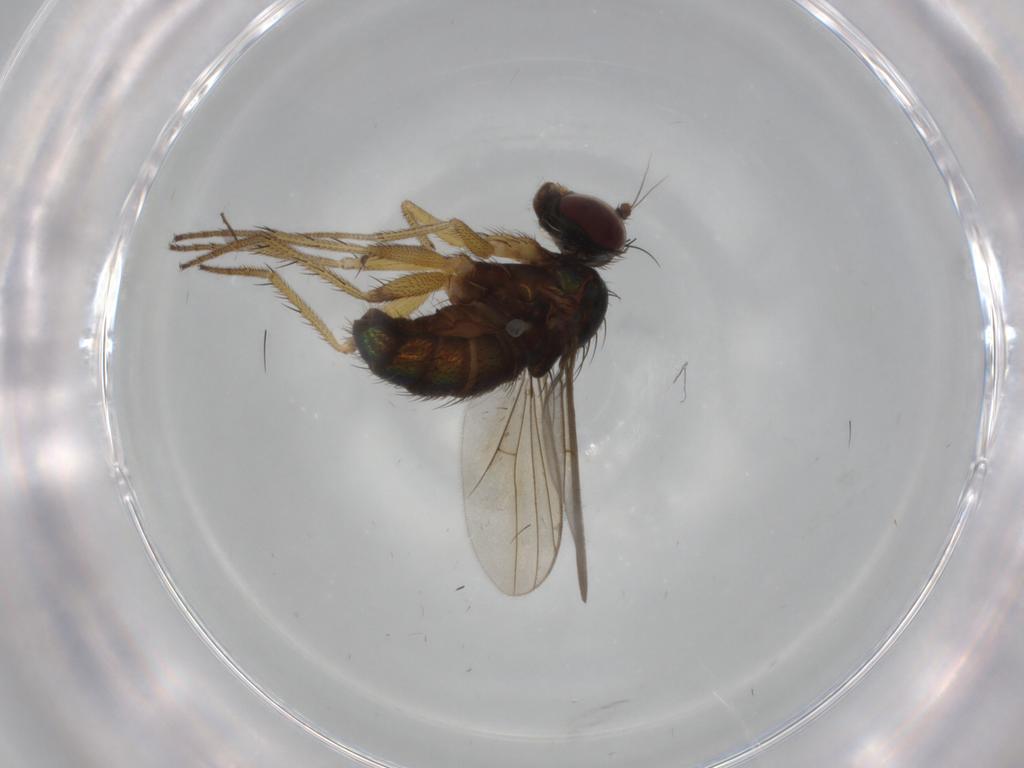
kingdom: Animalia
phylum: Arthropoda
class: Insecta
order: Diptera
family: Dolichopodidae
